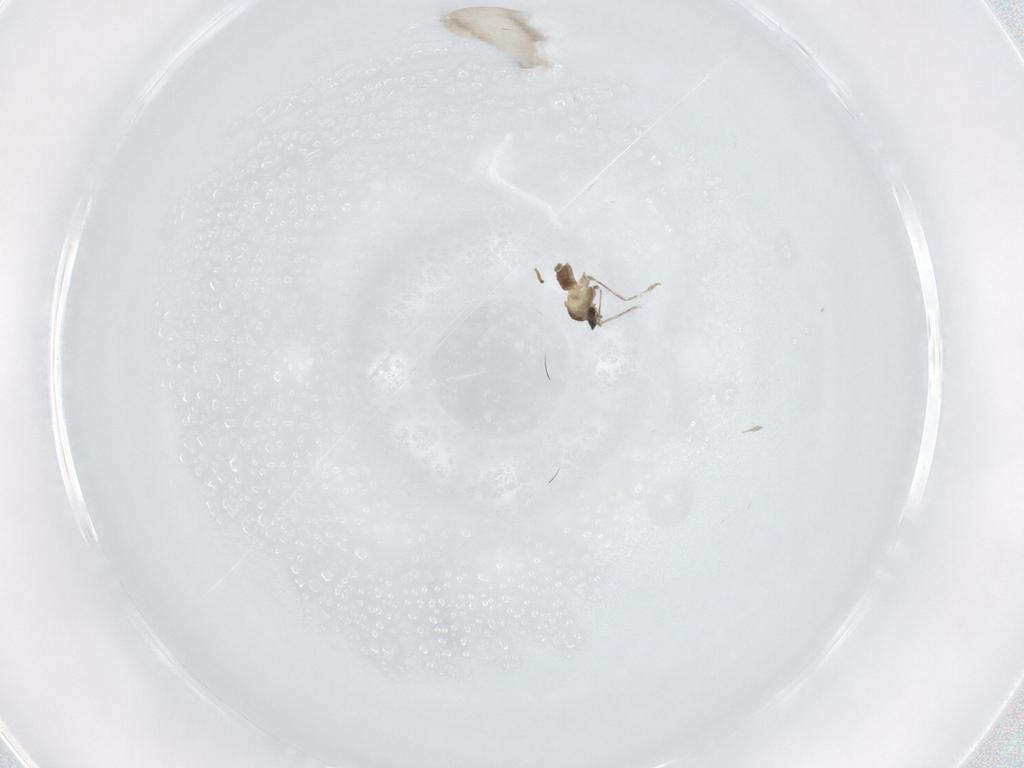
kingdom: Animalia
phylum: Arthropoda
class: Insecta
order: Diptera
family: Cecidomyiidae
